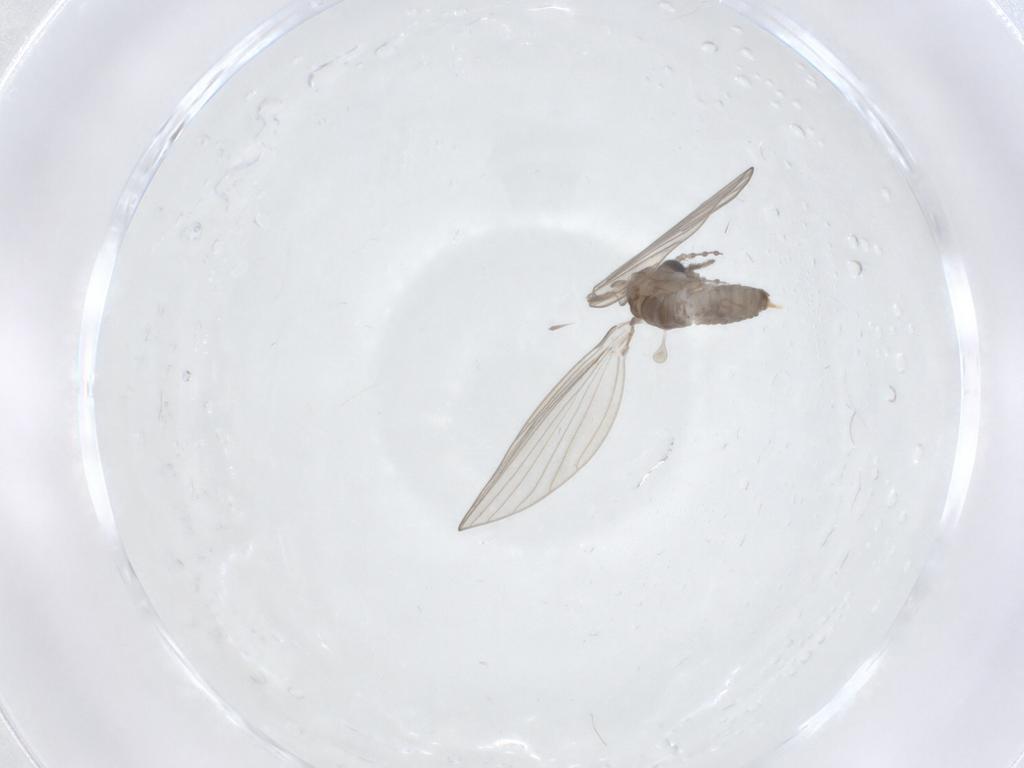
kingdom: Animalia
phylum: Arthropoda
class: Insecta
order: Diptera
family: Psychodidae
